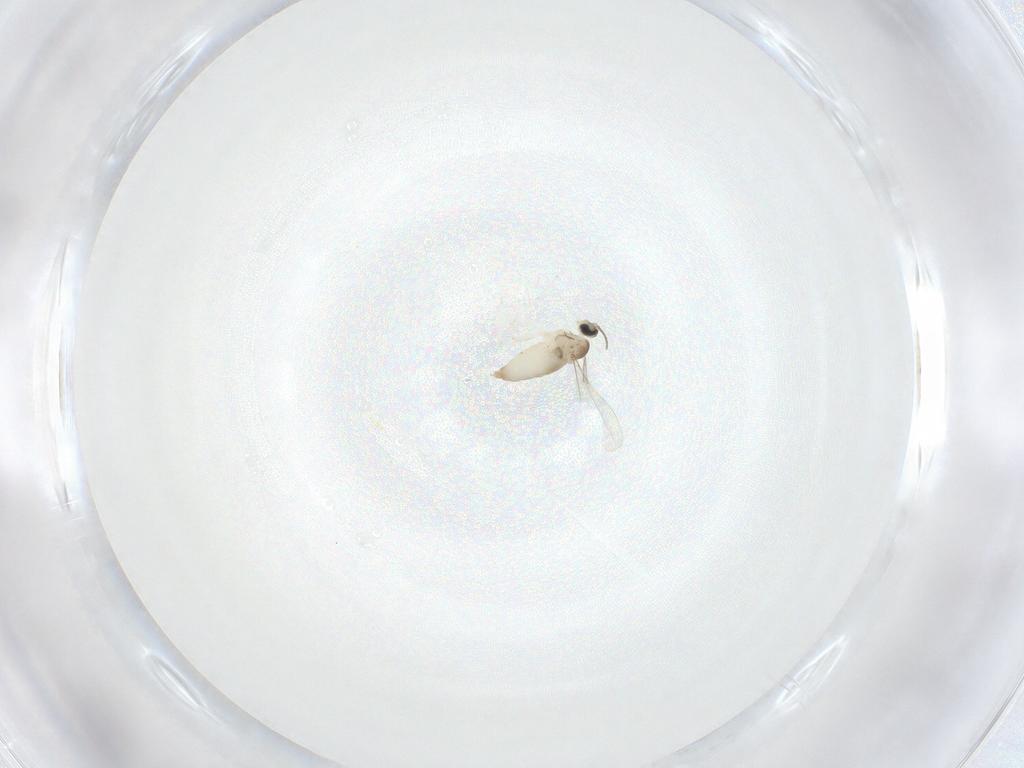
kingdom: Animalia
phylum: Arthropoda
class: Insecta
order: Diptera
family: Cecidomyiidae
